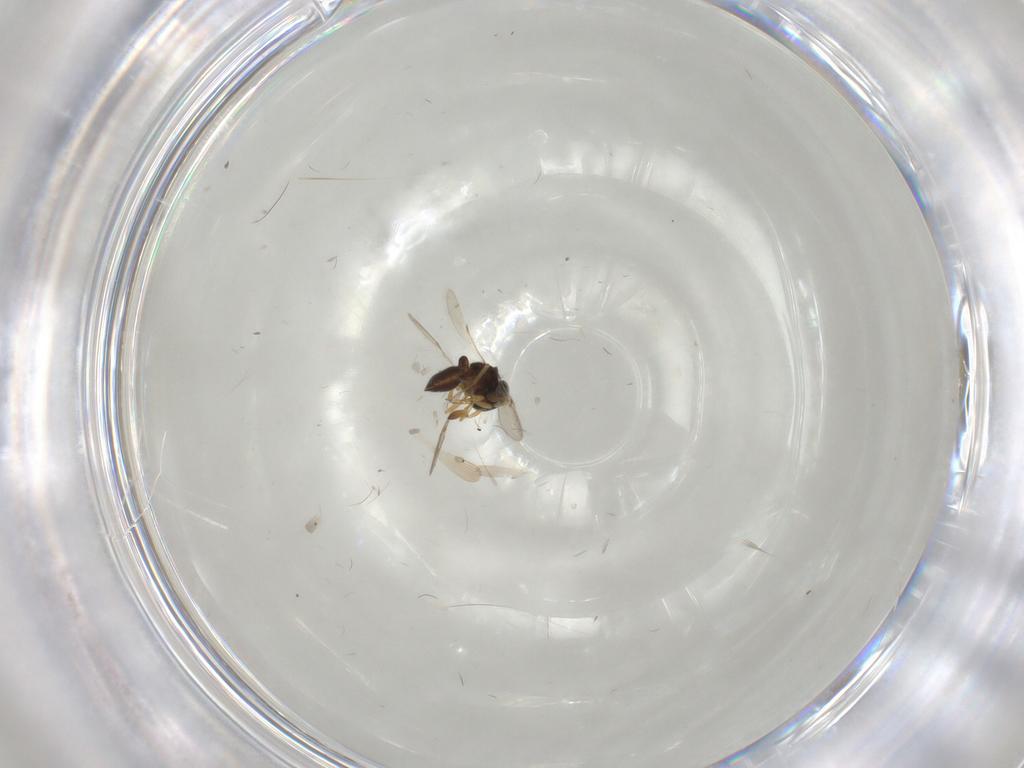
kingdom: Animalia
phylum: Arthropoda
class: Insecta
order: Hymenoptera
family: Scelionidae
